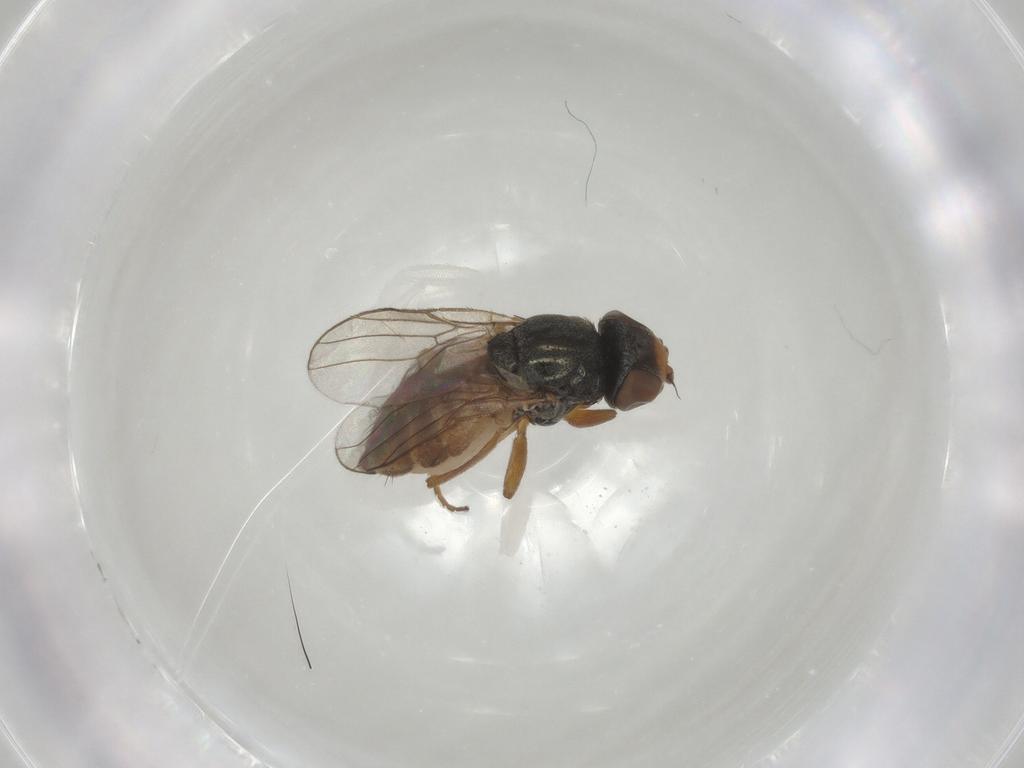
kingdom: Animalia
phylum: Arthropoda
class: Insecta
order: Diptera
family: Chloropidae
